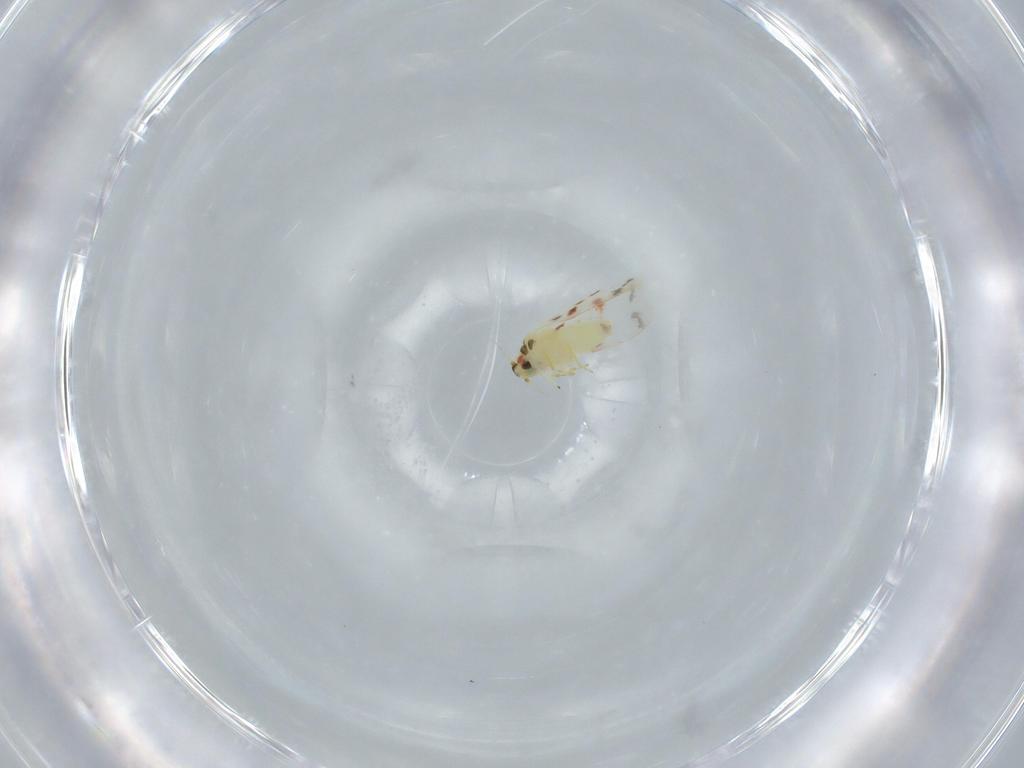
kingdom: Animalia
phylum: Arthropoda
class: Insecta
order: Hemiptera
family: Aleyrodidae
